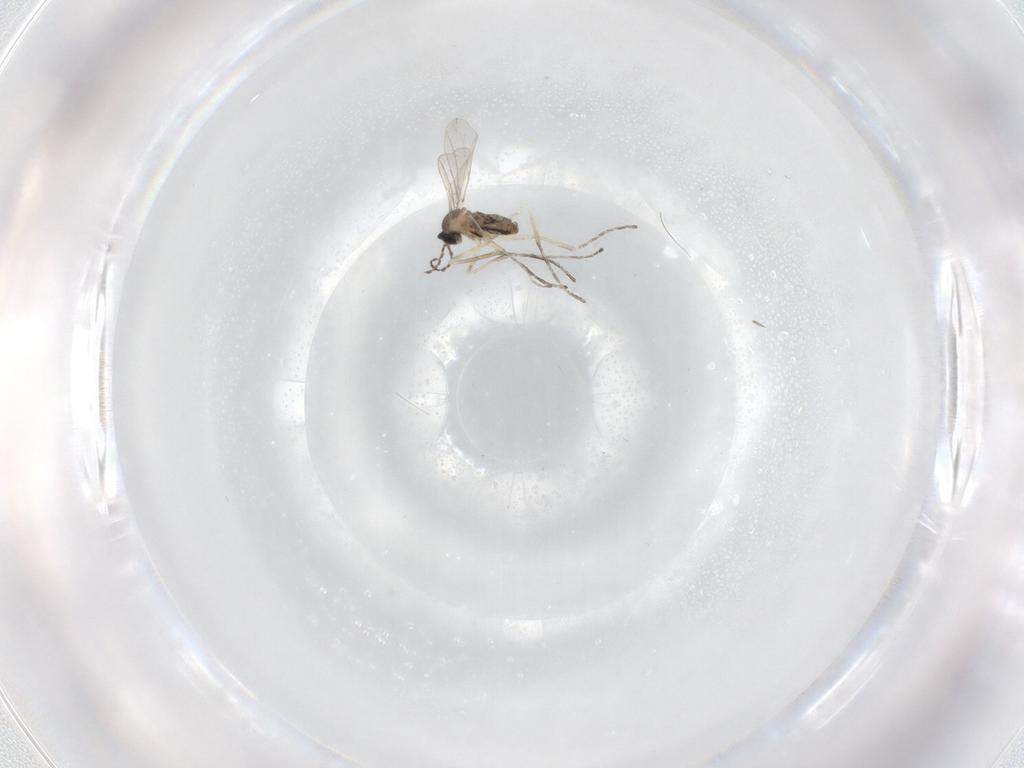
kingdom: Animalia
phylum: Arthropoda
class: Insecta
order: Diptera
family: Cecidomyiidae
